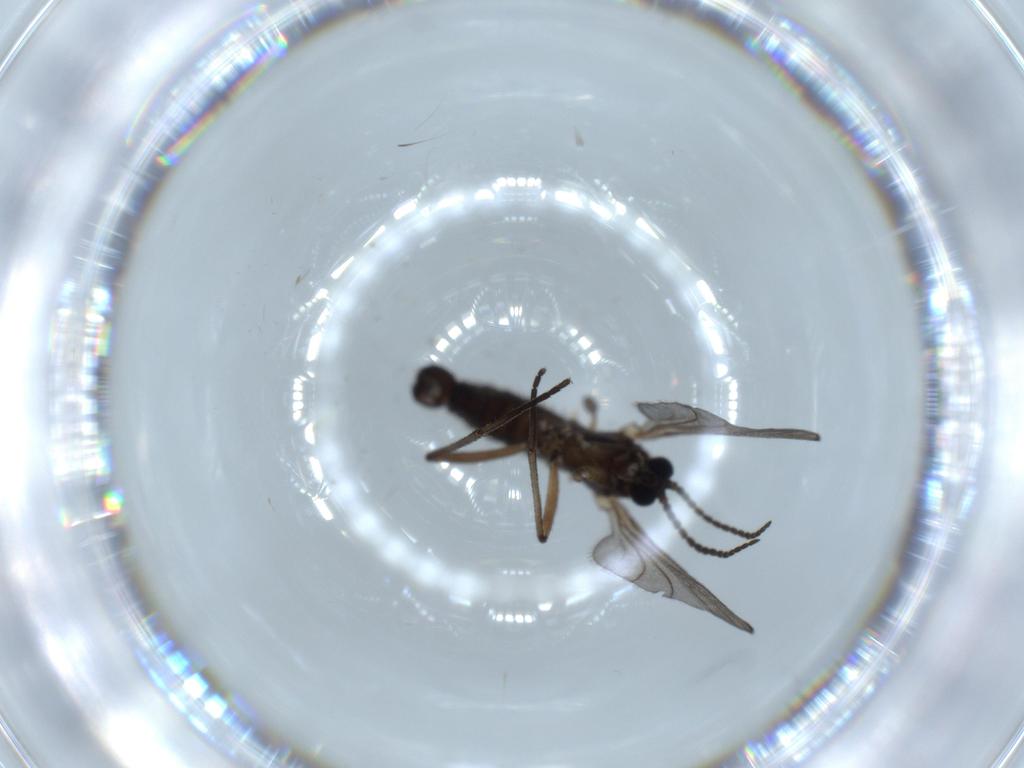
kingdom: Animalia
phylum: Arthropoda
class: Insecta
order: Diptera
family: Sciaridae
